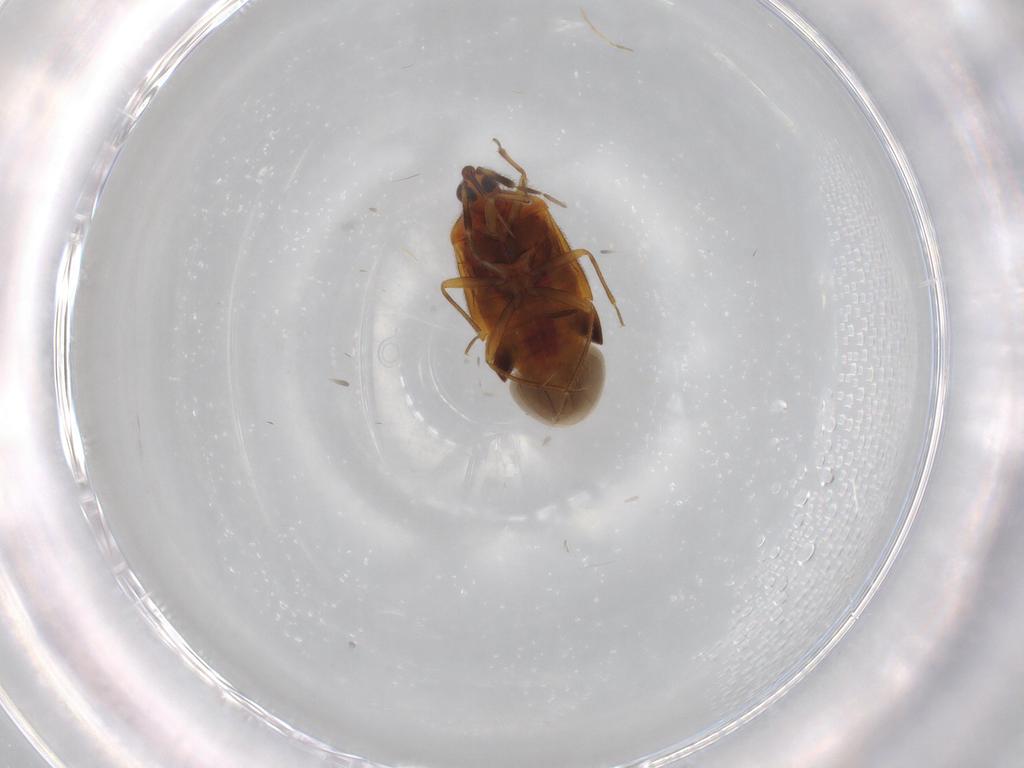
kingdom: Animalia
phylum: Arthropoda
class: Insecta
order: Hemiptera
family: Anthocoridae
